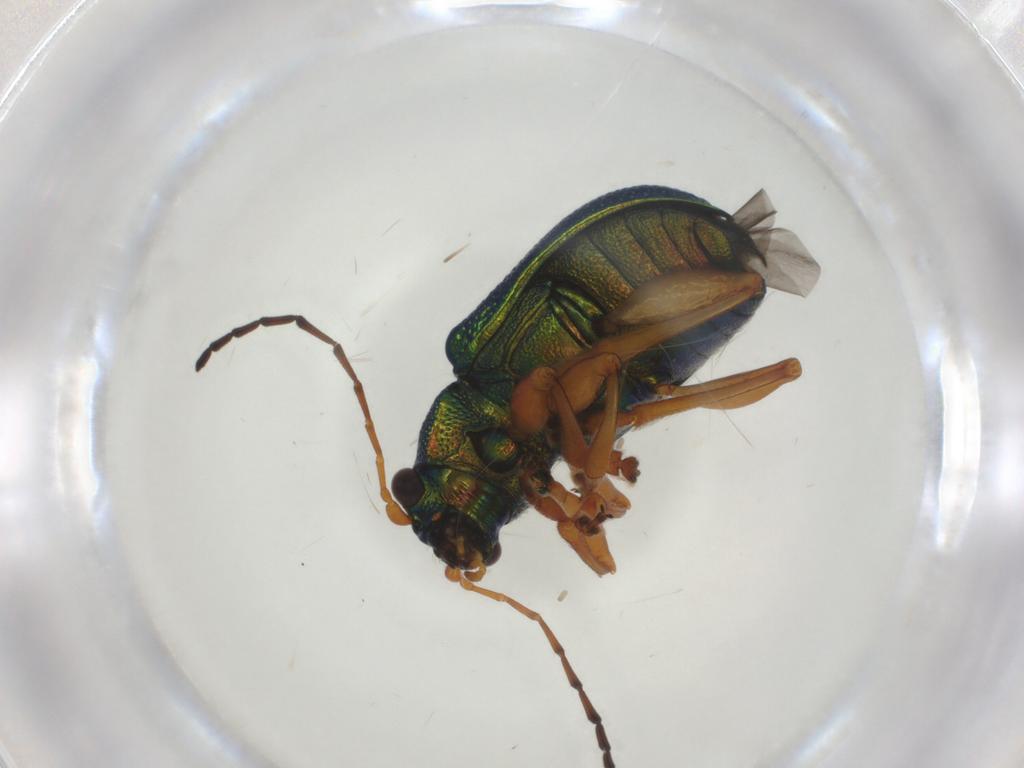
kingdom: Animalia
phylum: Arthropoda
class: Insecta
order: Coleoptera
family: Chrysomelidae
